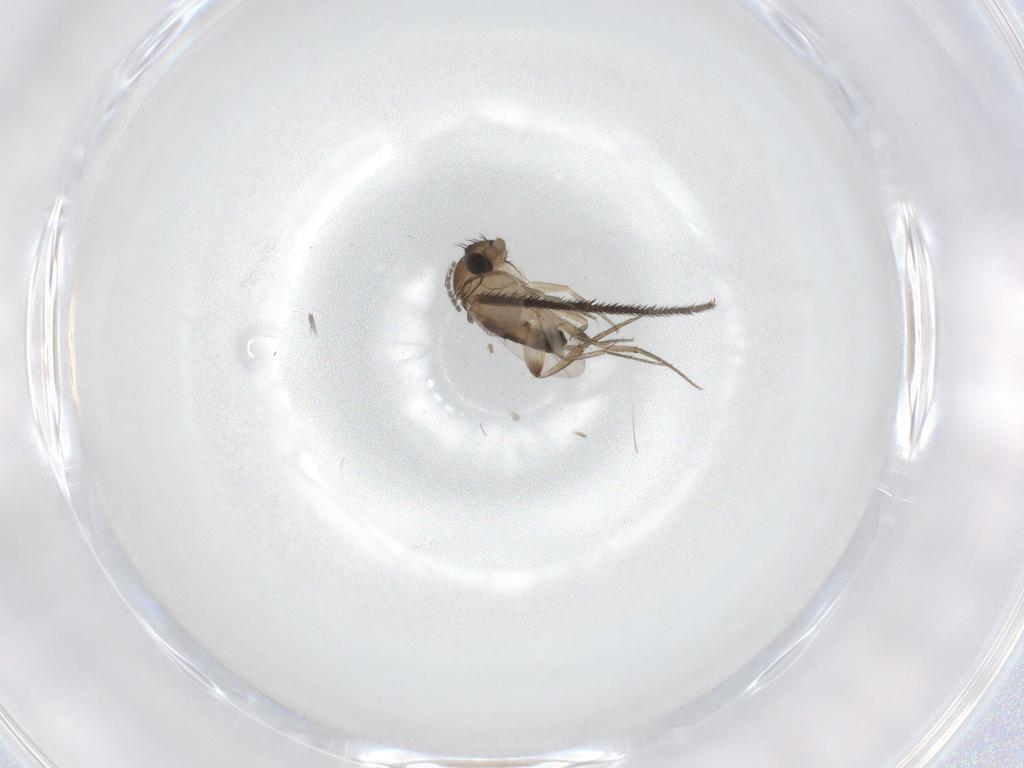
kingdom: Animalia
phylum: Arthropoda
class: Insecta
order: Diptera
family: Phoridae
